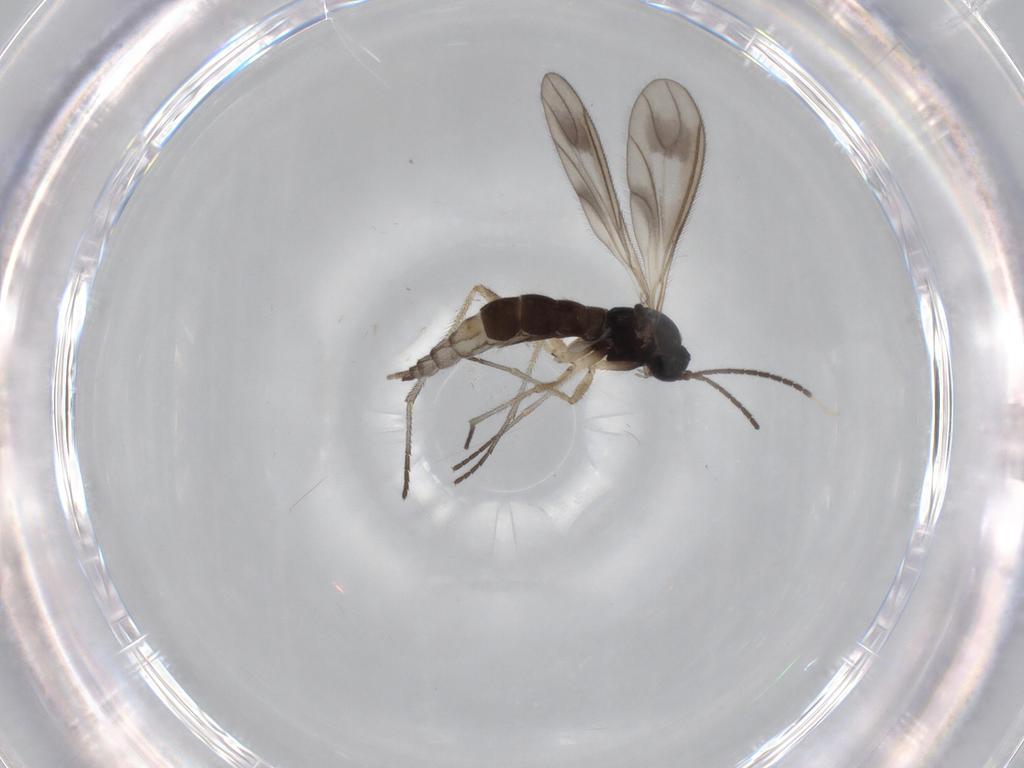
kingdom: Animalia
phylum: Arthropoda
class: Insecta
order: Diptera
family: Sciaridae
